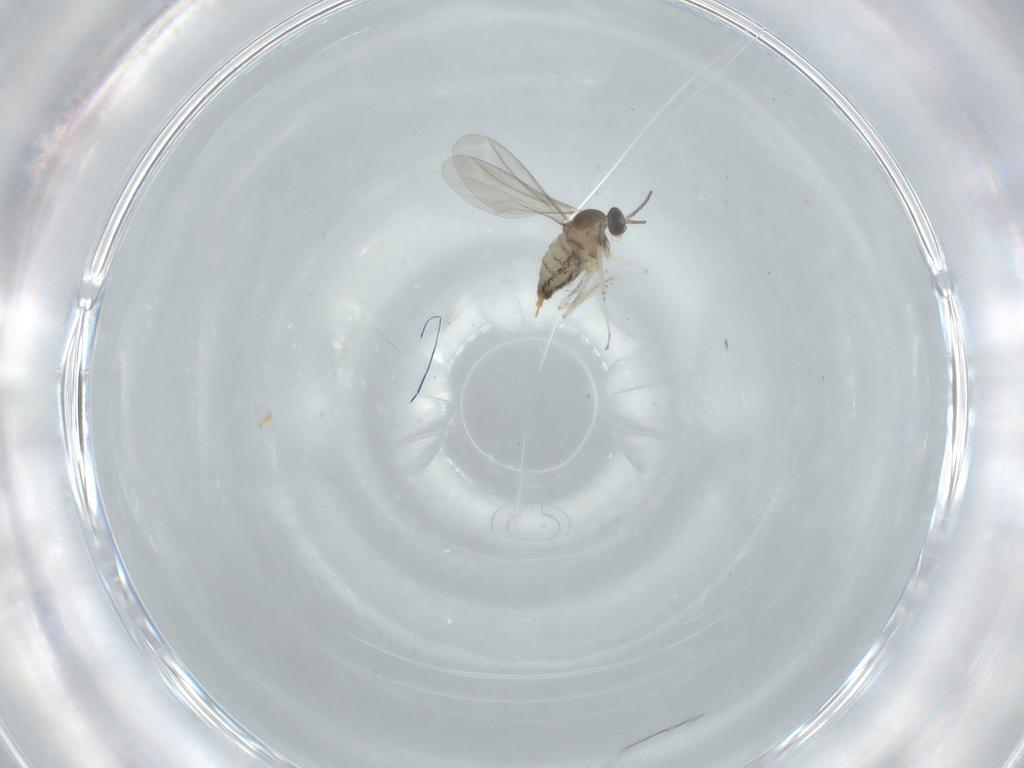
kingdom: Animalia
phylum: Arthropoda
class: Insecta
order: Diptera
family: Cecidomyiidae
